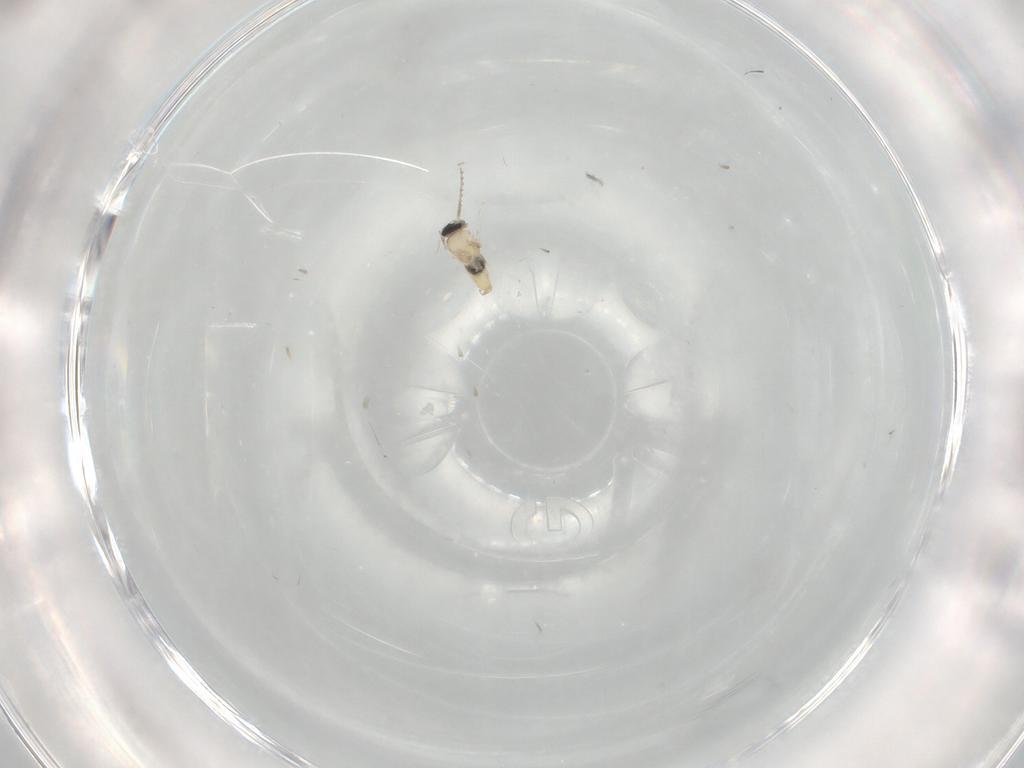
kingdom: Animalia
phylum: Arthropoda
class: Insecta
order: Diptera
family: Cecidomyiidae
